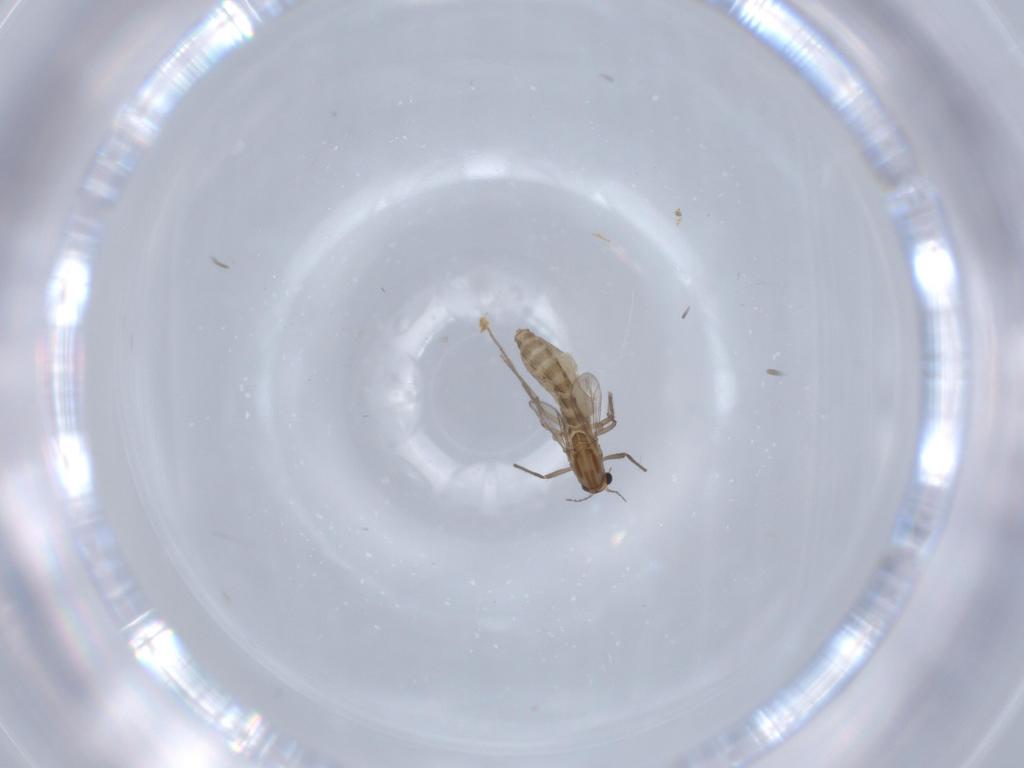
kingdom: Animalia
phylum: Arthropoda
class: Insecta
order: Diptera
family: Chironomidae
